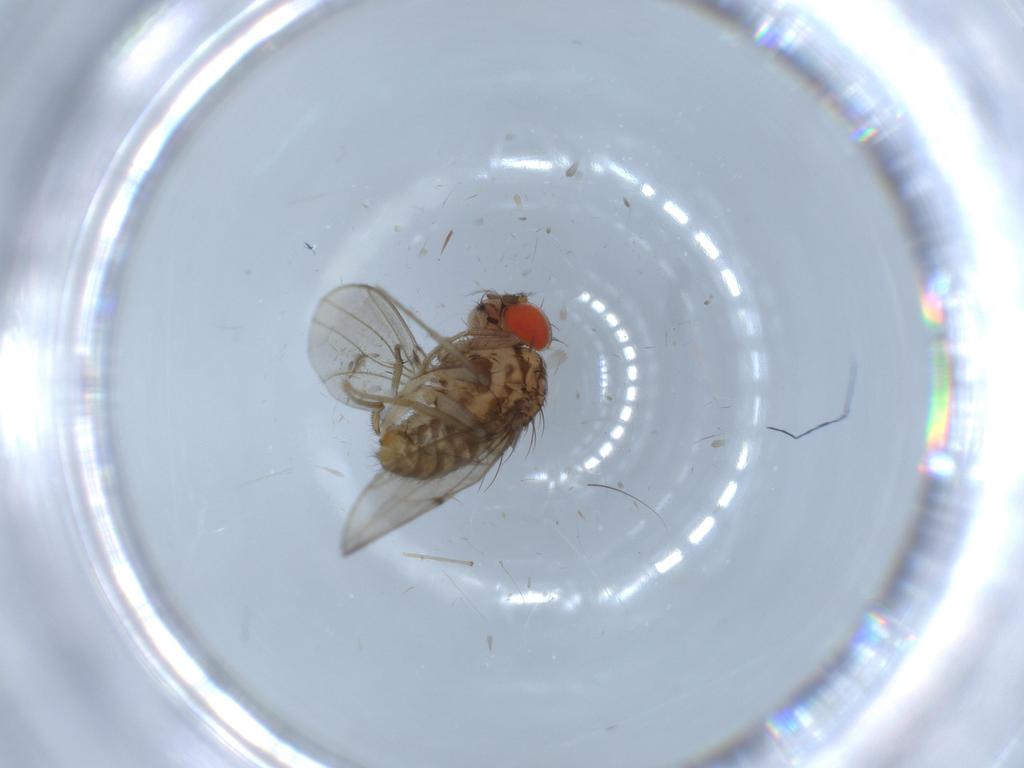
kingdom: Animalia
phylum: Arthropoda
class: Insecta
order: Diptera
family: Drosophilidae
